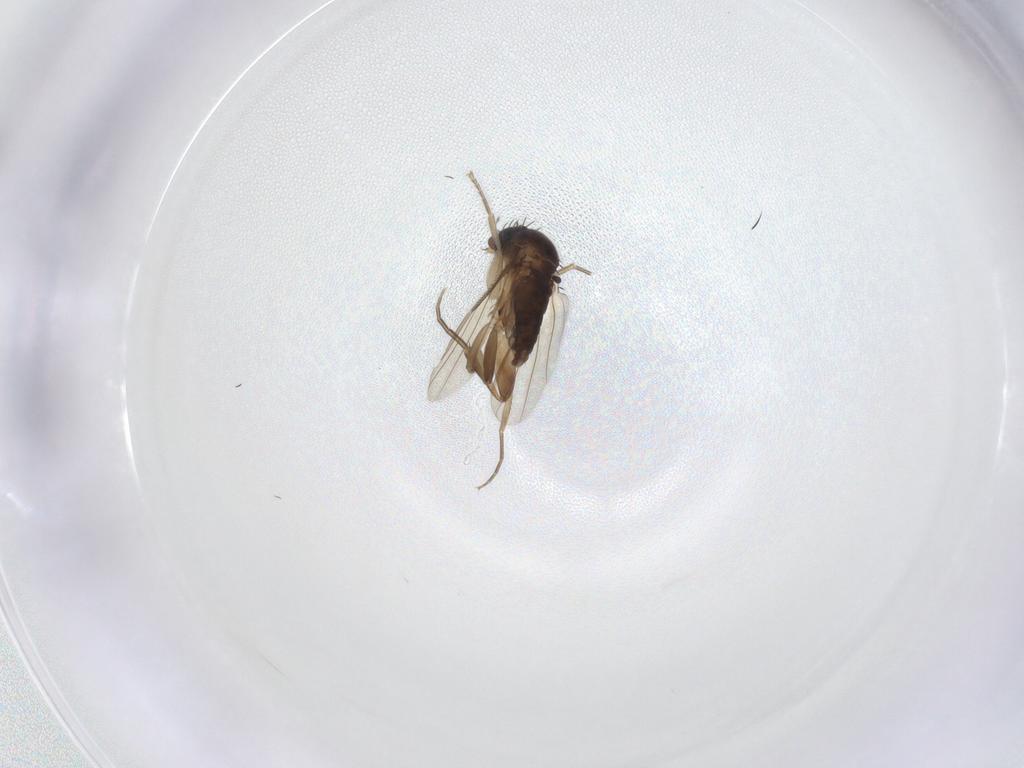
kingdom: Animalia
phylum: Arthropoda
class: Insecta
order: Diptera
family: Phoridae
